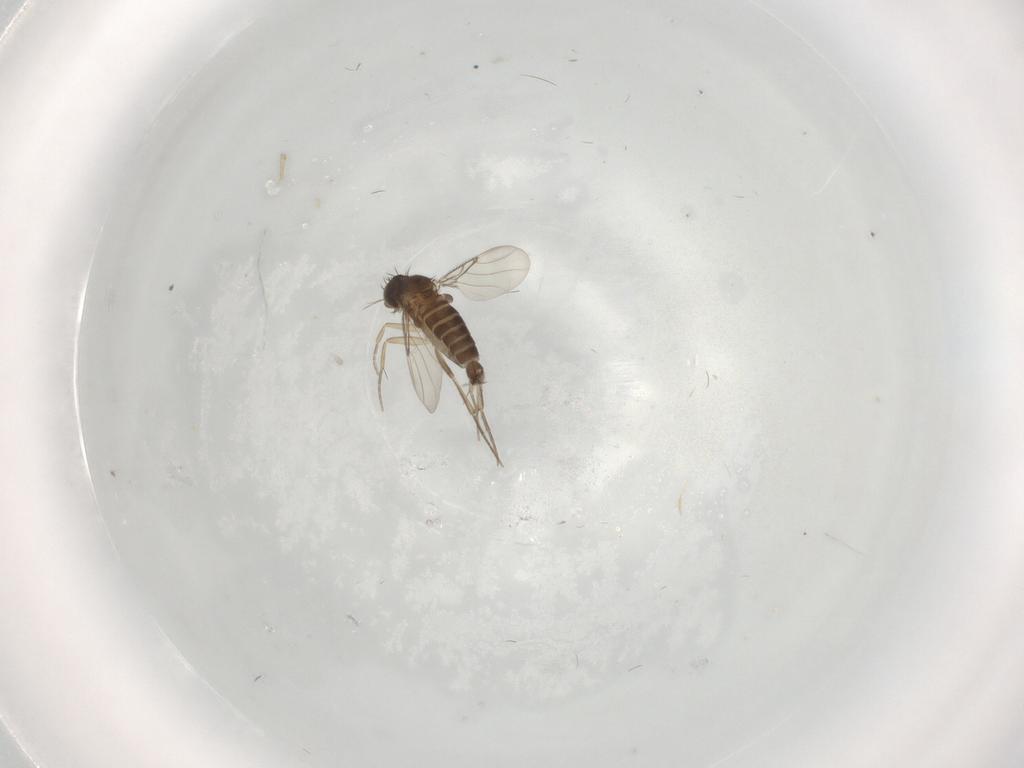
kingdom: Animalia
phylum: Arthropoda
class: Insecta
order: Diptera
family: Phoridae
